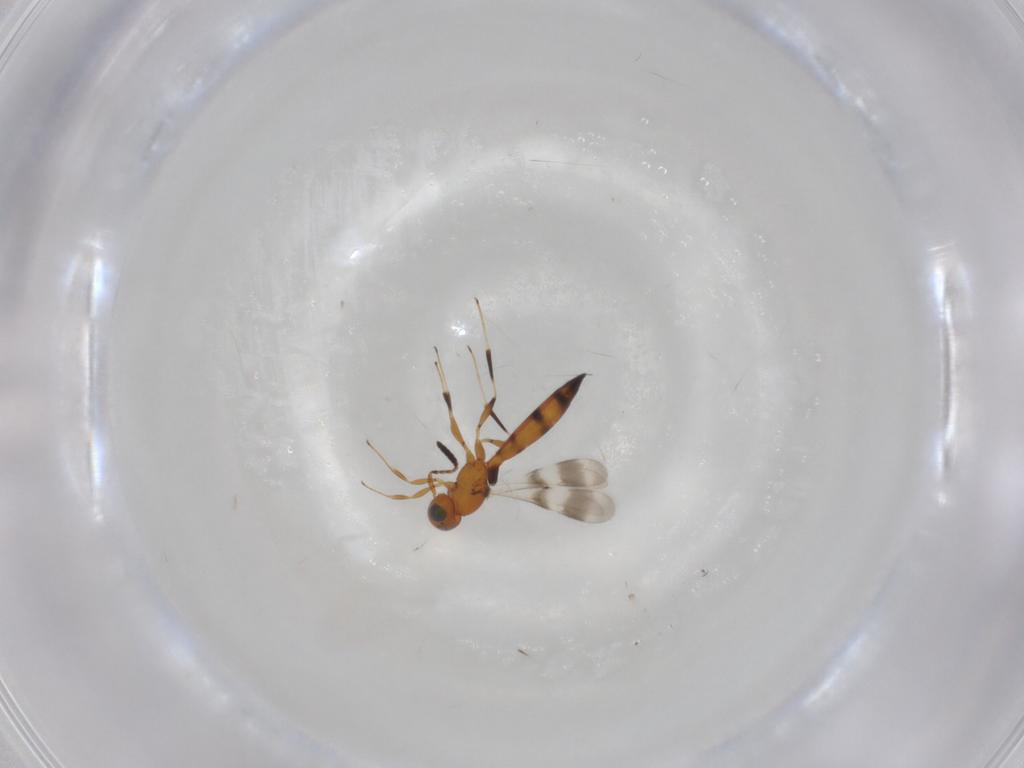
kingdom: Animalia
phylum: Arthropoda
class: Insecta
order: Hymenoptera
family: Scelionidae
